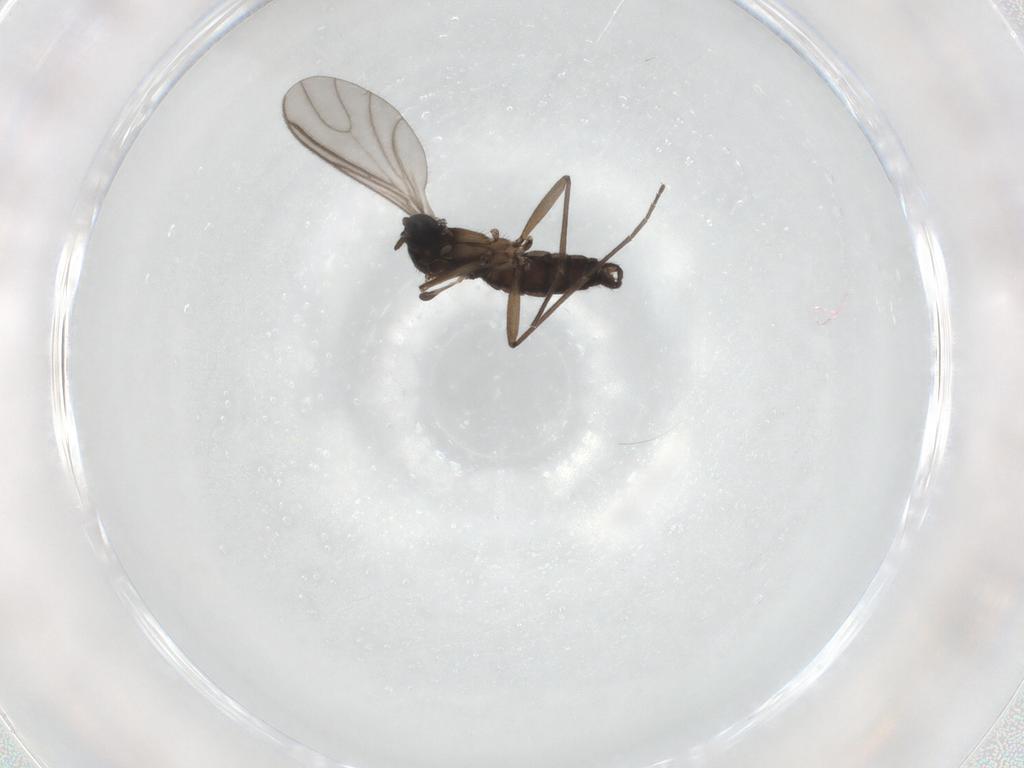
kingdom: Animalia
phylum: Arthropoda
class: Insecta
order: Diptera
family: Sciaridae
